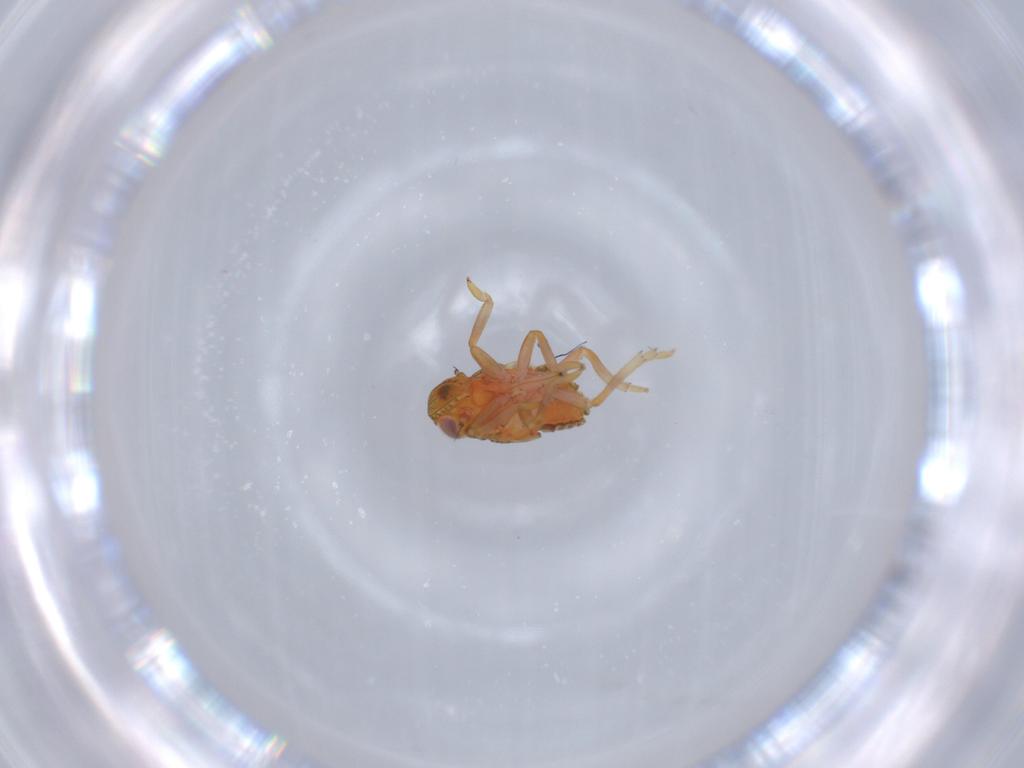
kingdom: Animalia
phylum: Arthropoda
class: Insecta
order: Hemiptera
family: Issidae
